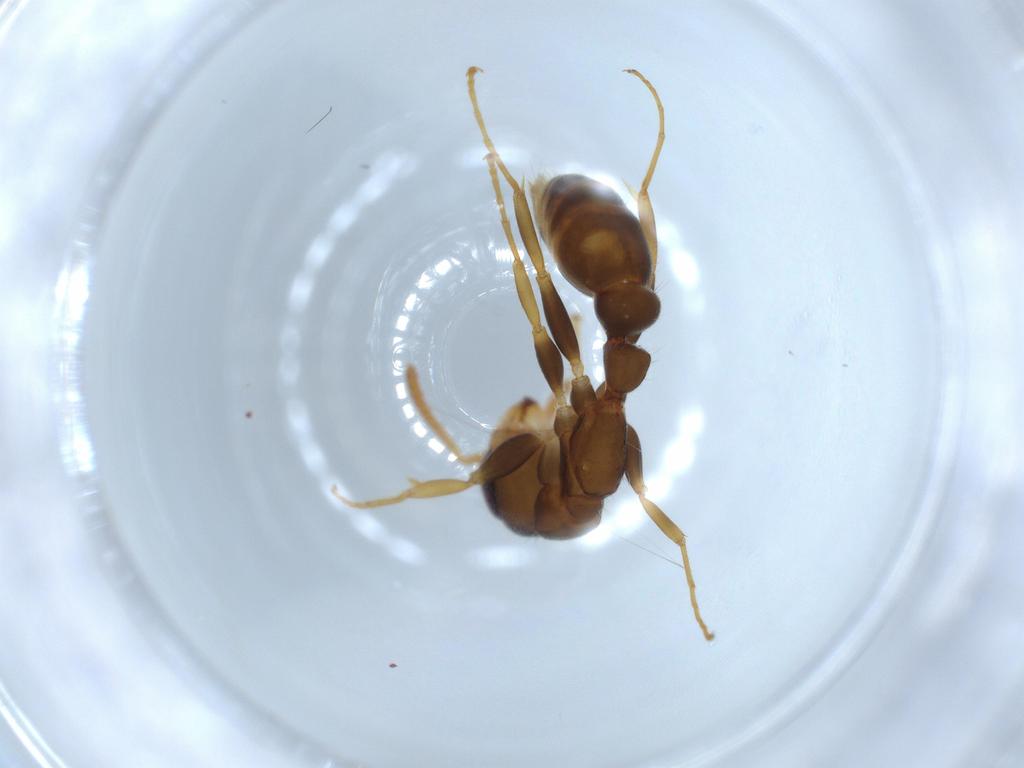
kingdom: Animalia
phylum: Arthropoda
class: Insecta
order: Hymenoptera
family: Formicidae
